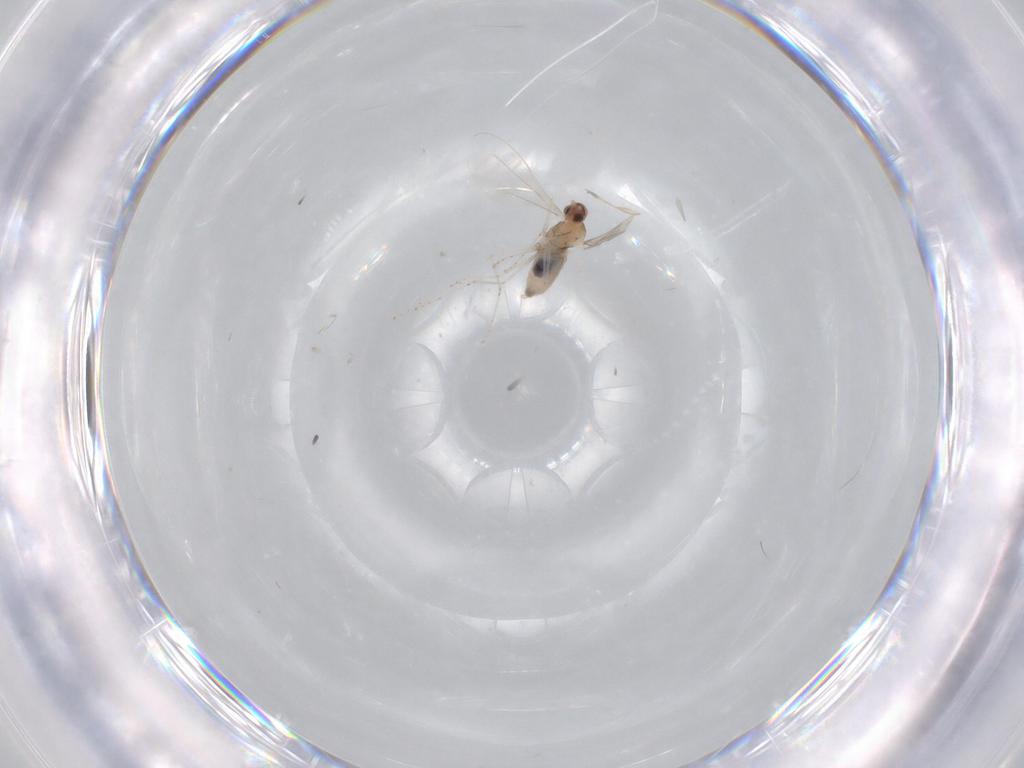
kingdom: Animalia
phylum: Arthropoda
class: Insecta
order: Diptera
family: Cecidomyiidae
